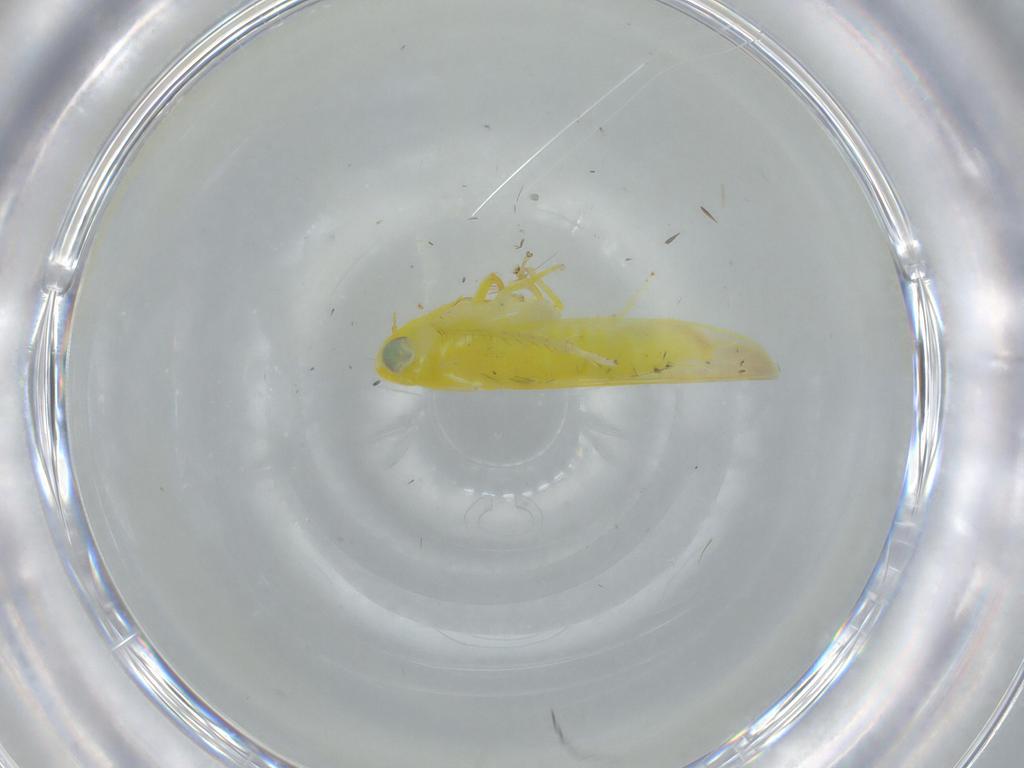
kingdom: Animalia
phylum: Arthropoda
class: Insecta
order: Hemiptera
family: Cicadellidae
